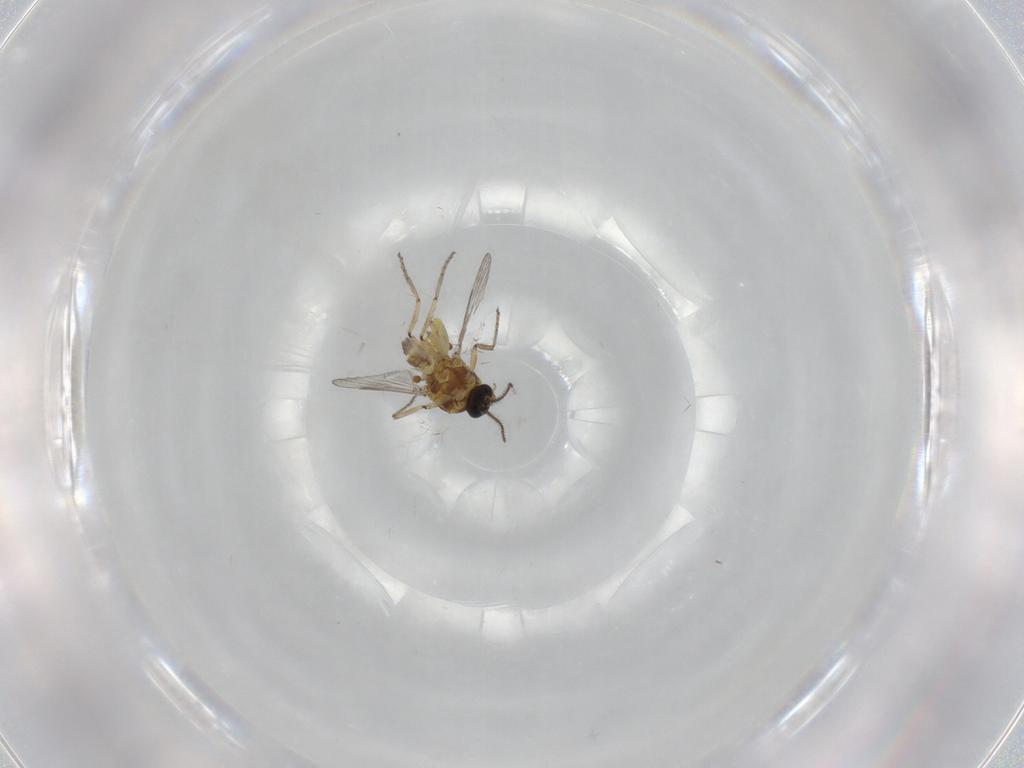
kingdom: Animalia
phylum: Arthropoda
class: Insecta
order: Diptera
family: Ceratopogonidae
